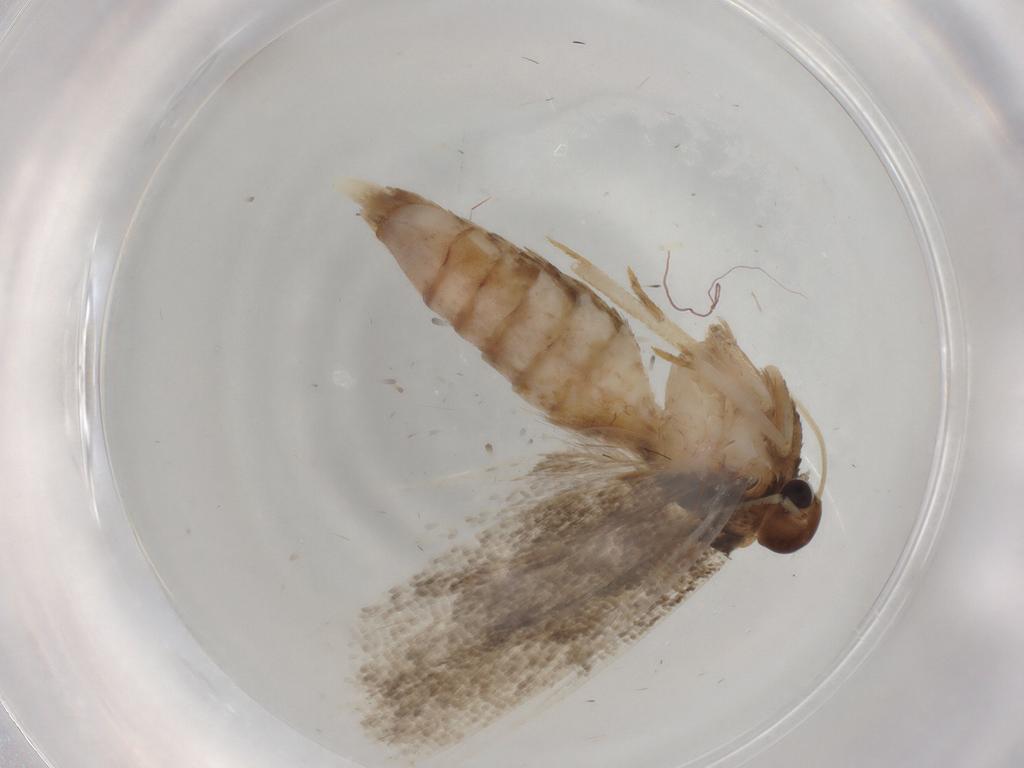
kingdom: Animalia
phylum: Arthropoda
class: Insecta
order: Lepidoptera
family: Gelechiidae
